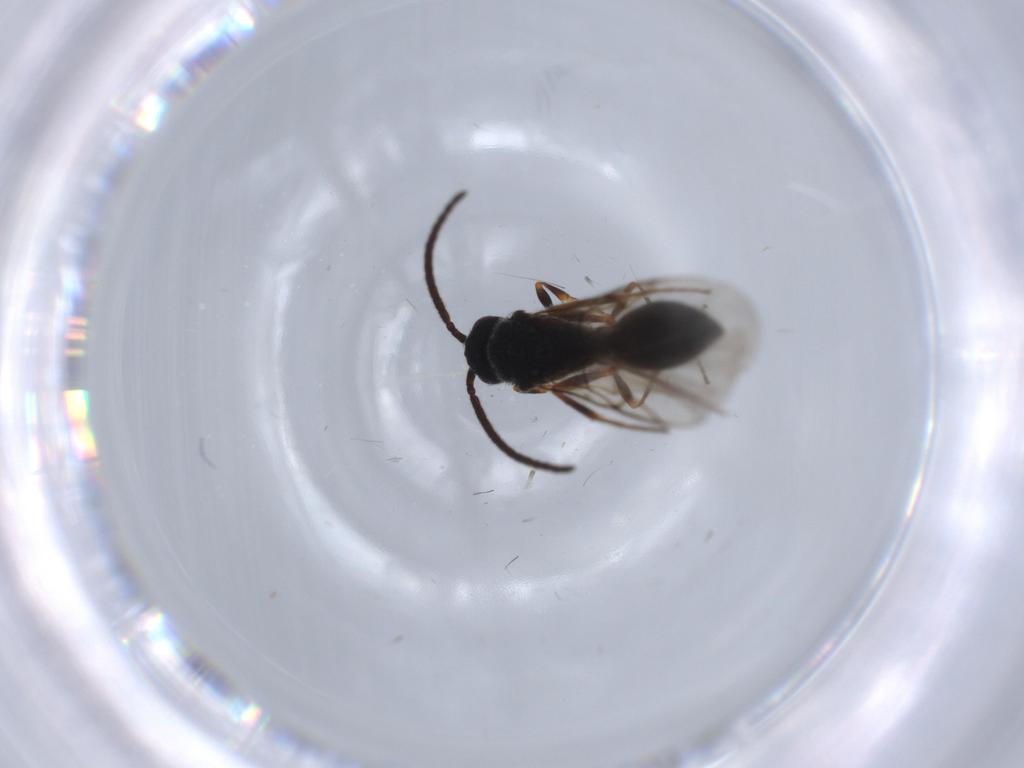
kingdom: Animalia
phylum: Arthropoda
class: Insecta
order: Hymenoptera
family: Diapriidae
